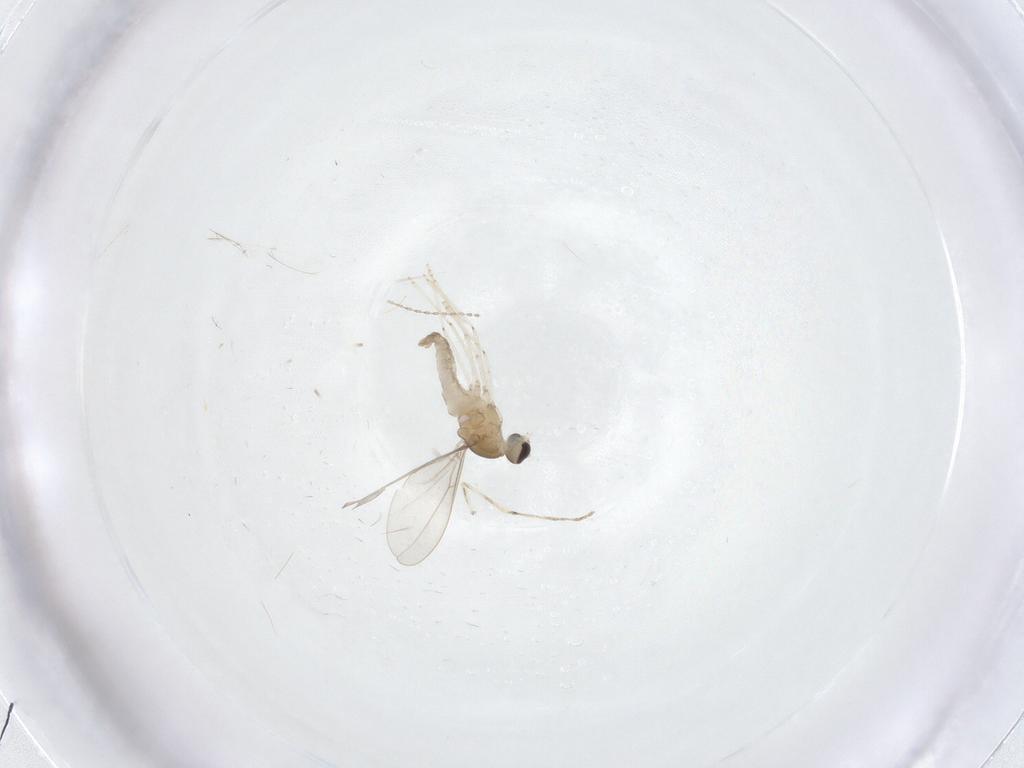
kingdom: Animalia
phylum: Arthropoda
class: Insecta
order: Diptera
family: Cecidomyiidae
